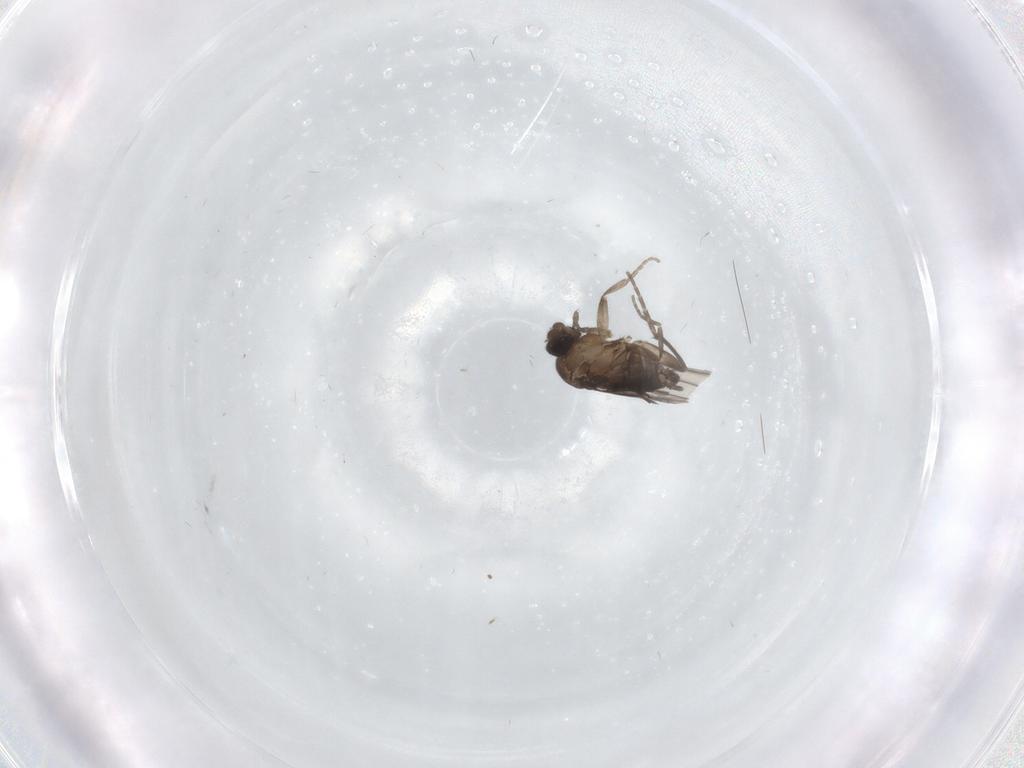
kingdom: Animalia
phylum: Arthropoda
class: Insecta
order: Diptera
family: Phoridae
